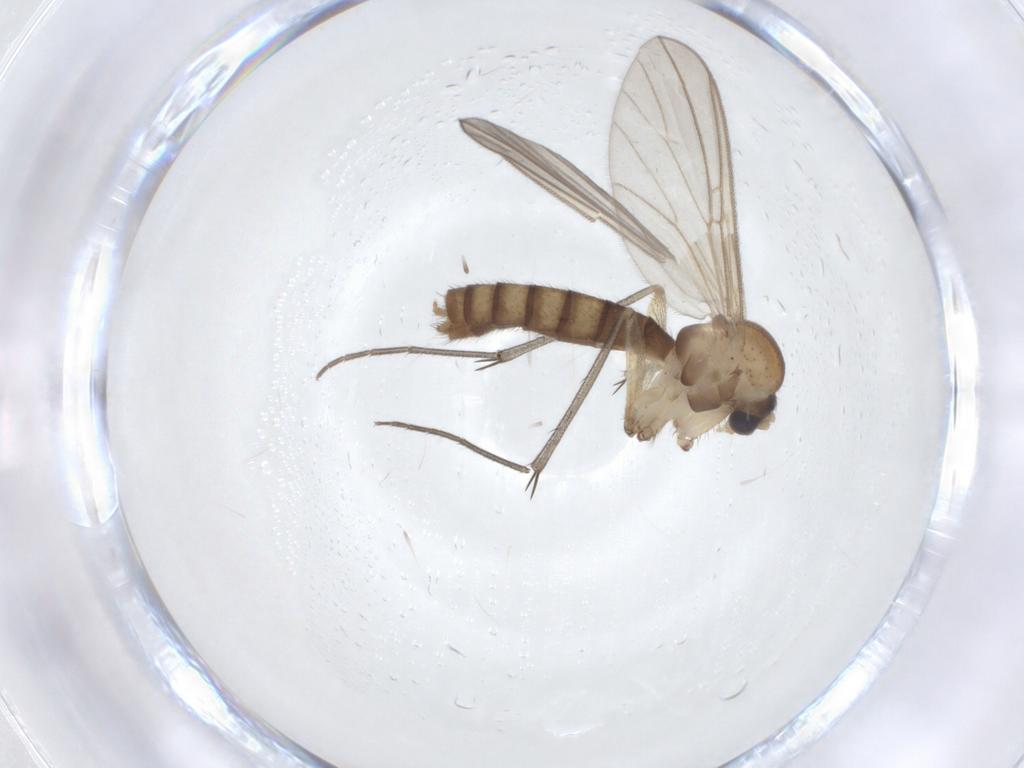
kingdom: Animalia
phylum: Arthropoda
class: Insecta
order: Diptera
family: Mycetophilidae
